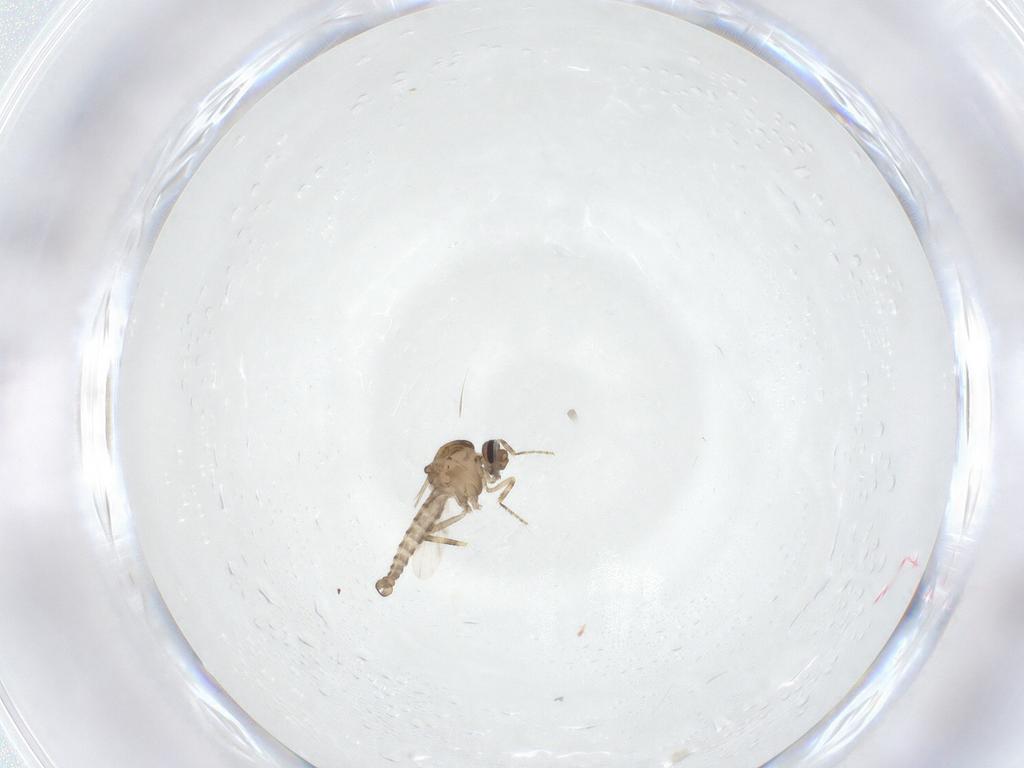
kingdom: Animalia
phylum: Arthropoda
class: Insecta
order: Diptera
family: Ceratopogonidae
